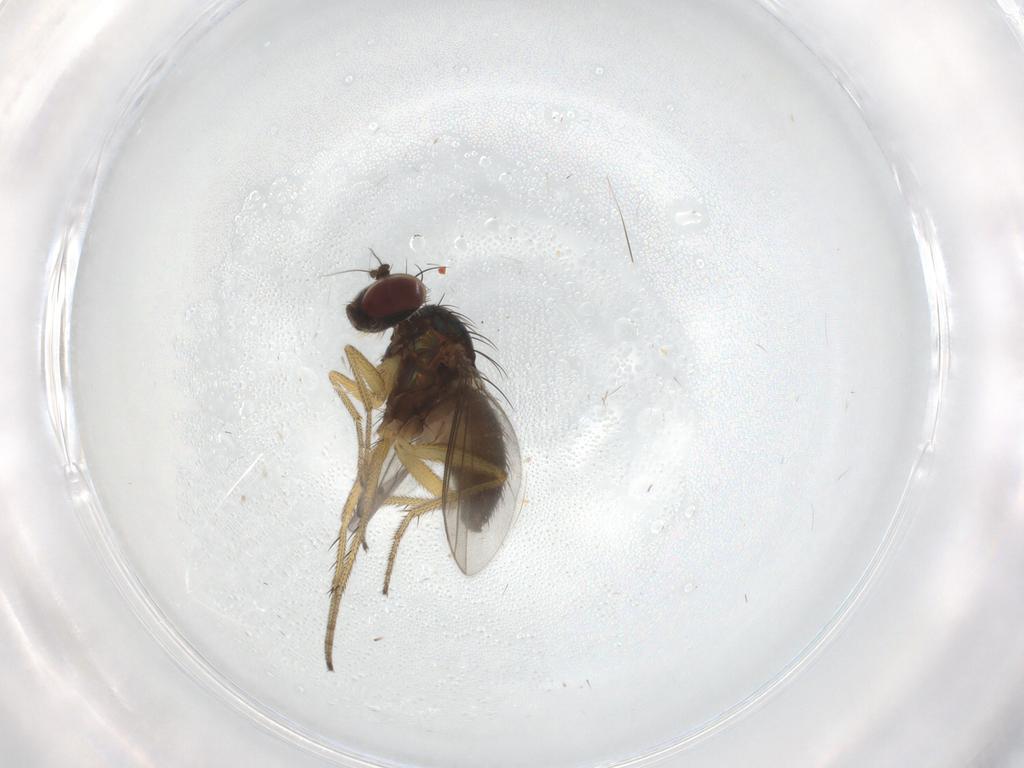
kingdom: Animalia
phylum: Arthropoda
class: Insecta
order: Diptera
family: Dolichopodidae
